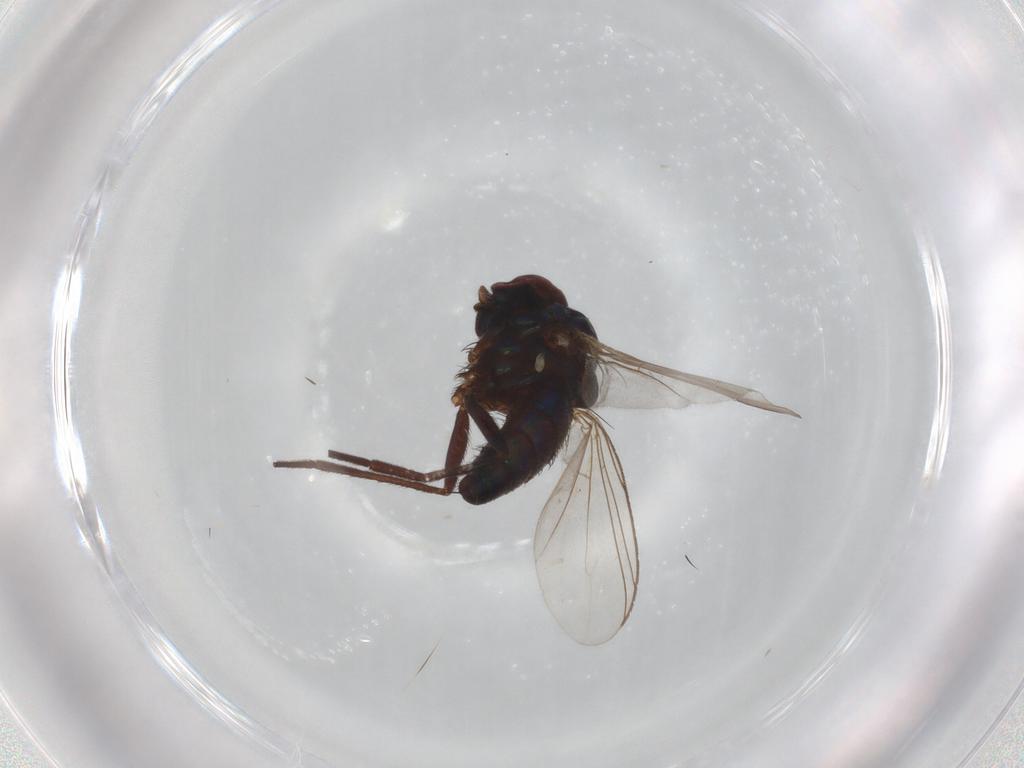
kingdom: Animalia
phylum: Arthropoda
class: Insecta
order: Diptera
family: Dolichopodidae
